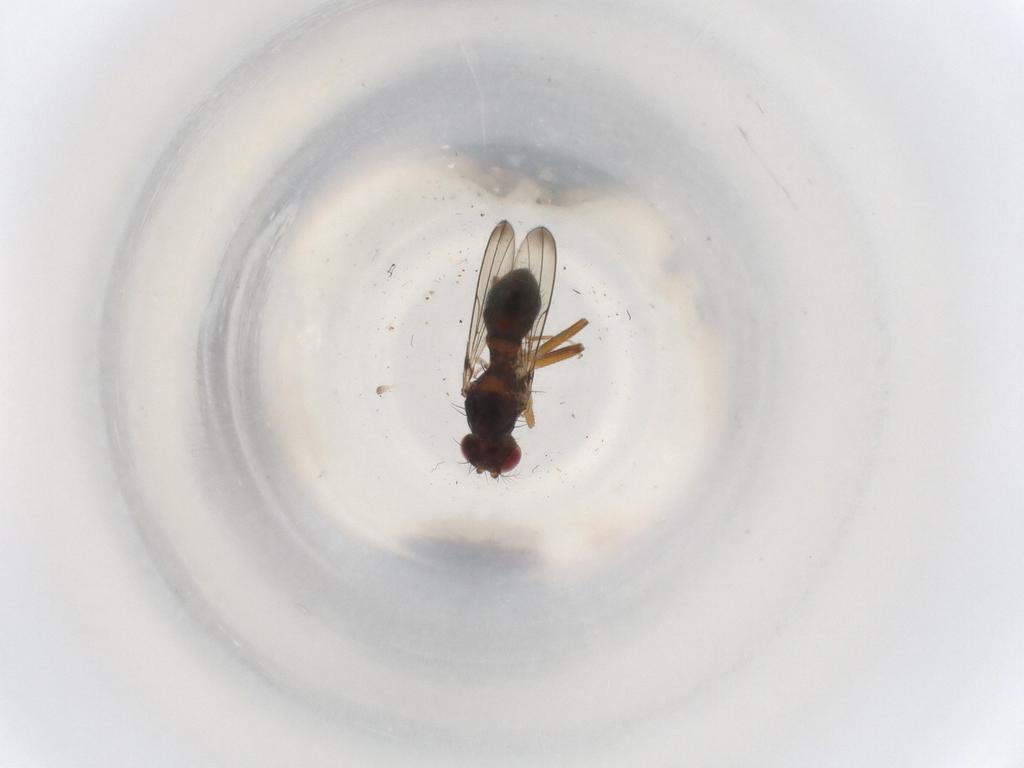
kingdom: Animalia
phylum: Arthropoda
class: Insecta
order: Diptera
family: Drosophilidae
